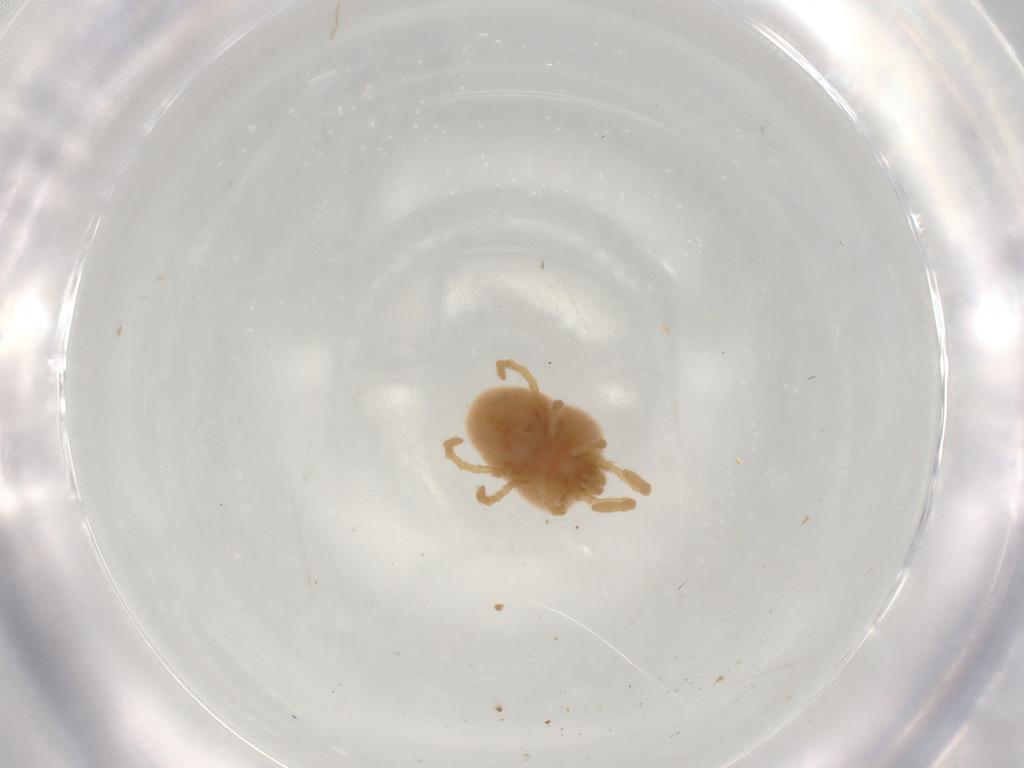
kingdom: Animalia
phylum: Arthropoda
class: Arachnida
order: Trombidiformes
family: Microtrombidiidae
